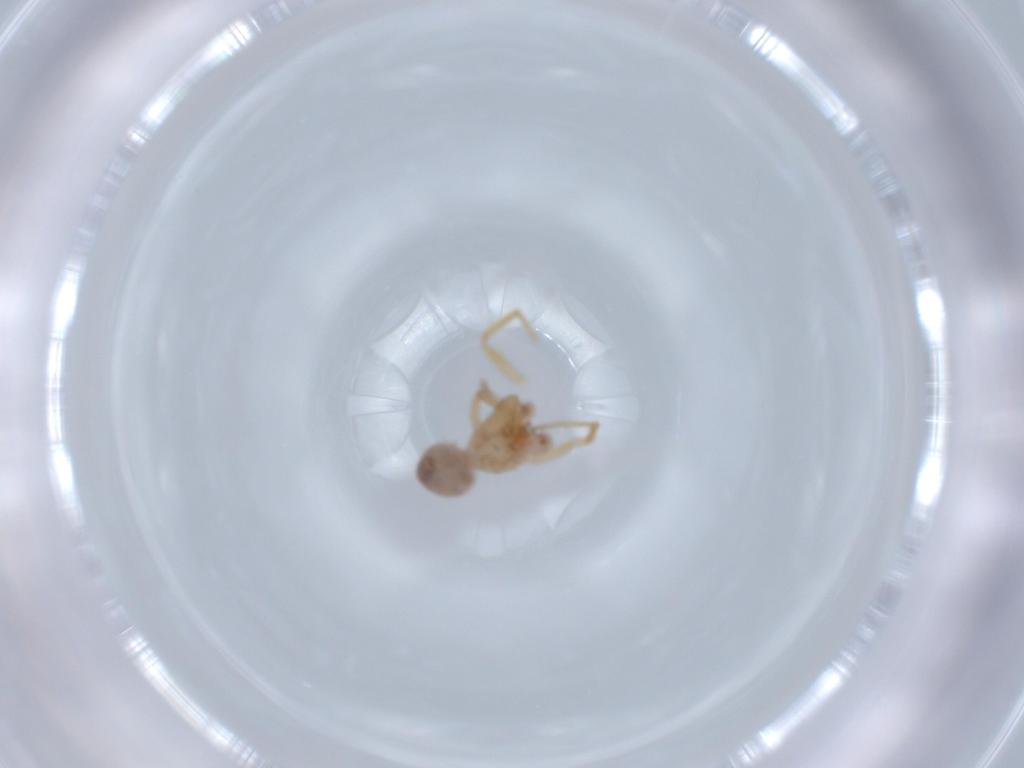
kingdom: Animalia
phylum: Arthropoda
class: Arachnida
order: Araneae
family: Oonopidae
